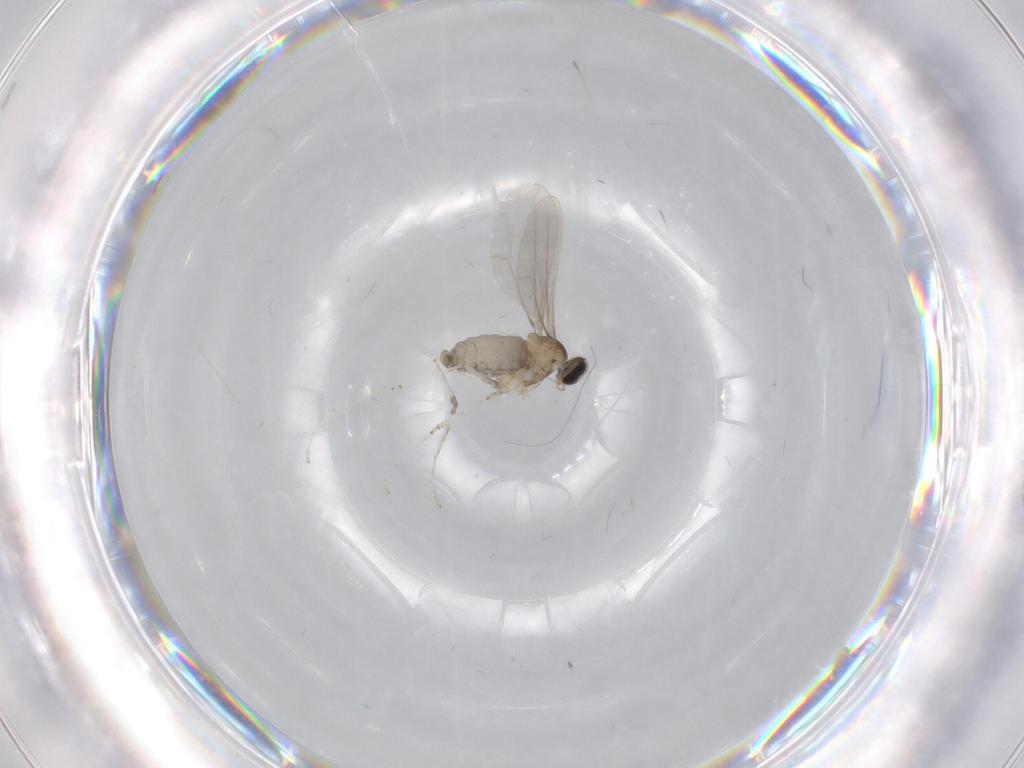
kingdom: Animalia
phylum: Arthropoda
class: Insecta
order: Diptera
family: Cecidomyiidae
